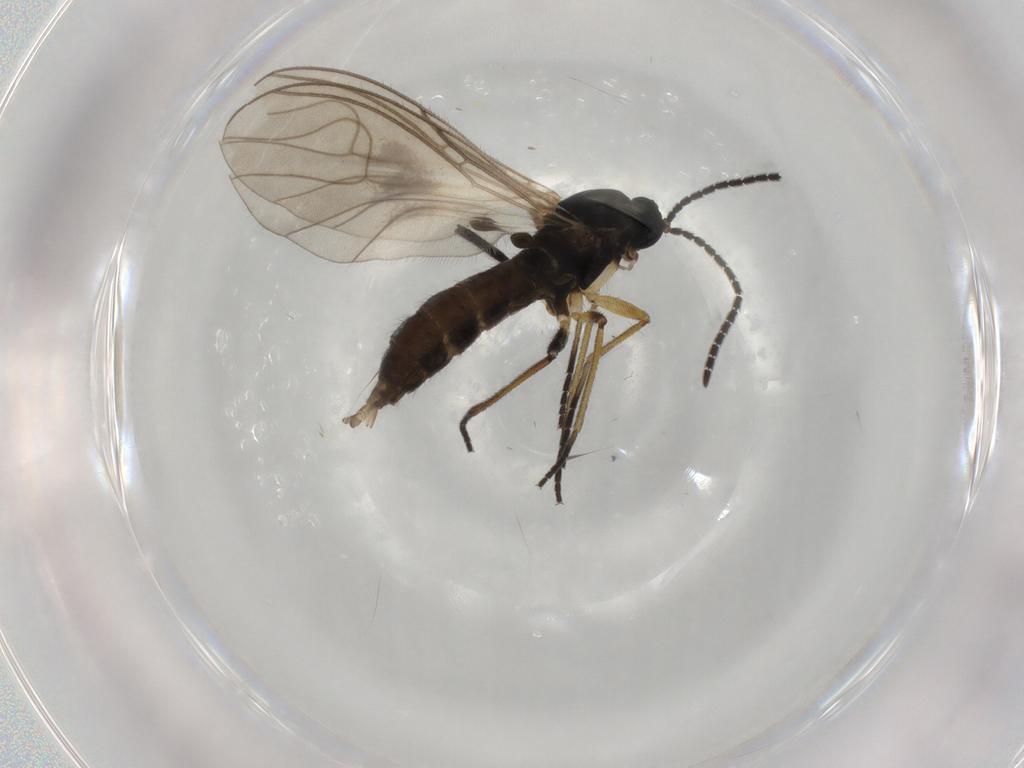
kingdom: Animalia
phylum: Arthropoda
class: Insecta
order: Diptera
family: Sciaridae
